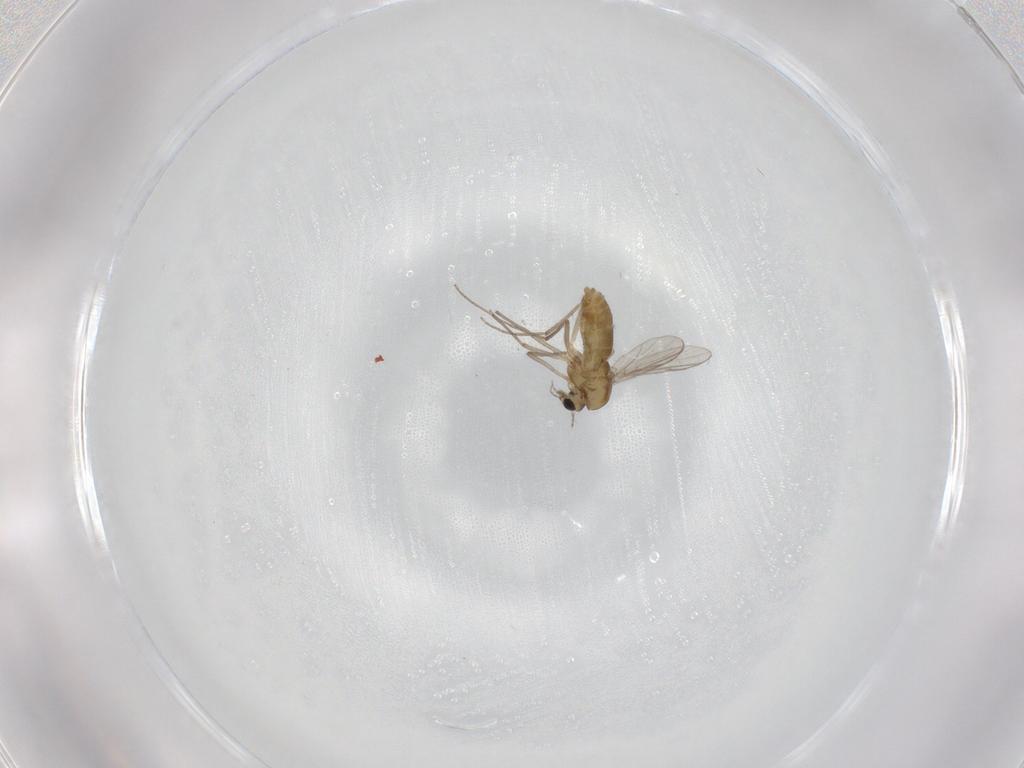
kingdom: Animalia
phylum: Arthropoda
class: Insecta
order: Diptera
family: Chironomidae
